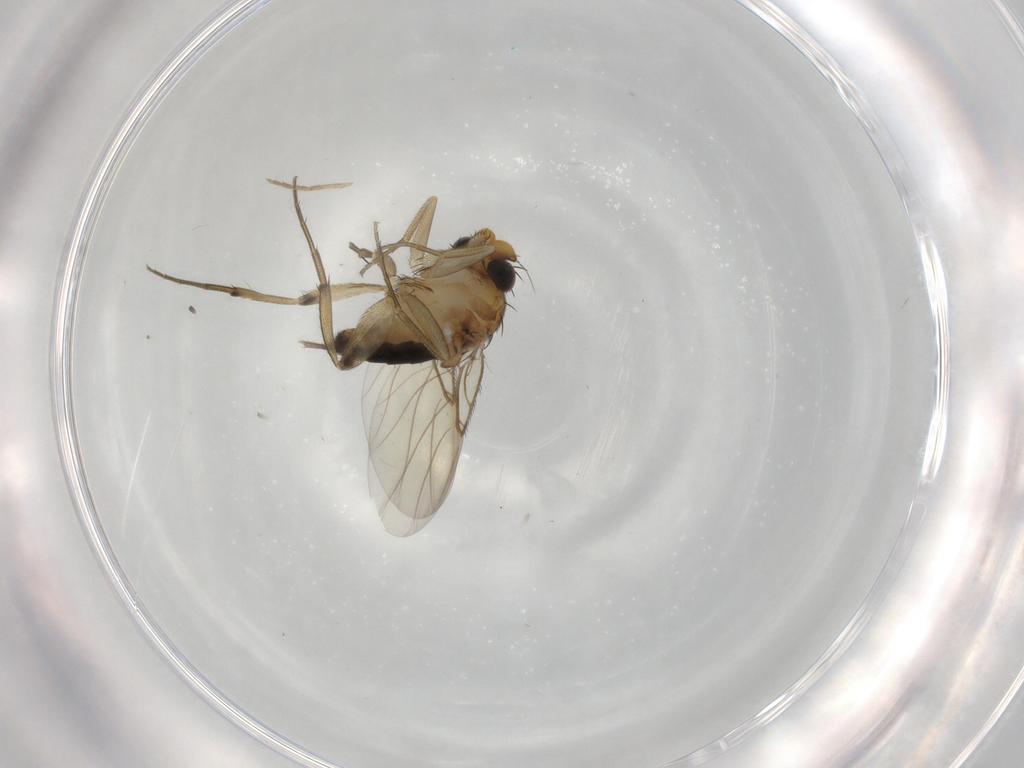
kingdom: Animalia
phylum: Arthropoda
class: Insecta
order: Diptera
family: Phoridae
